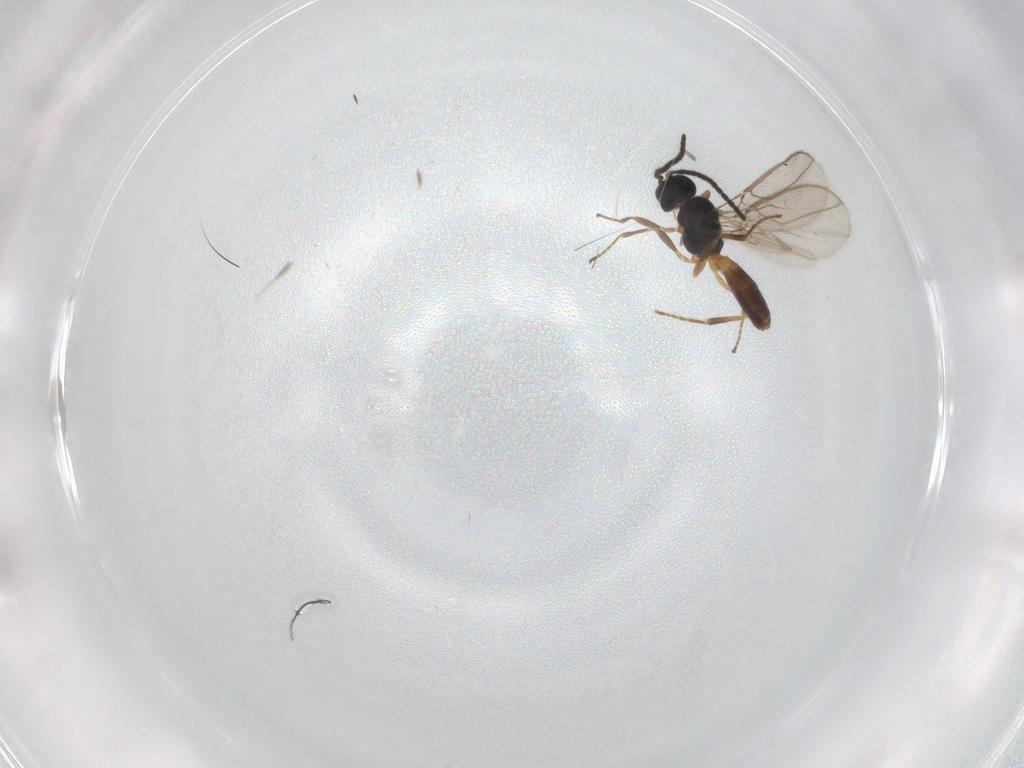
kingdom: Animalia
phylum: Arthropoda
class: Insecta
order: Hymenoptera
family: Braconidae
